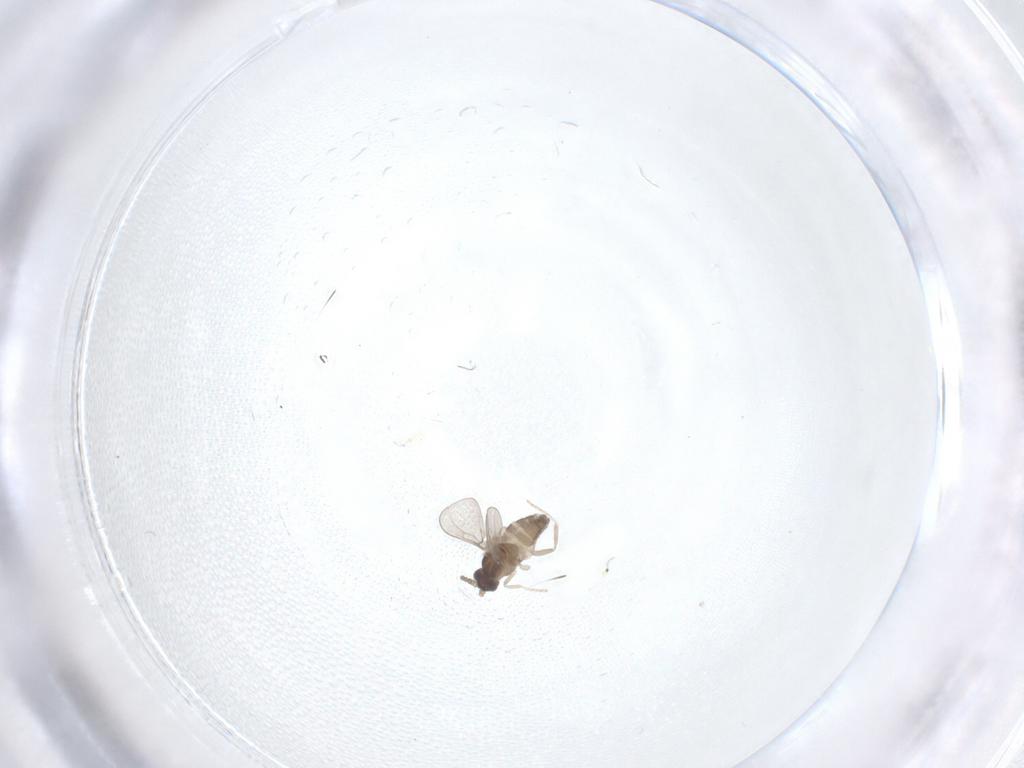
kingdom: Animalia
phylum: Arthropoda
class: Insecta
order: Diptera
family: Cecidomyiidae
